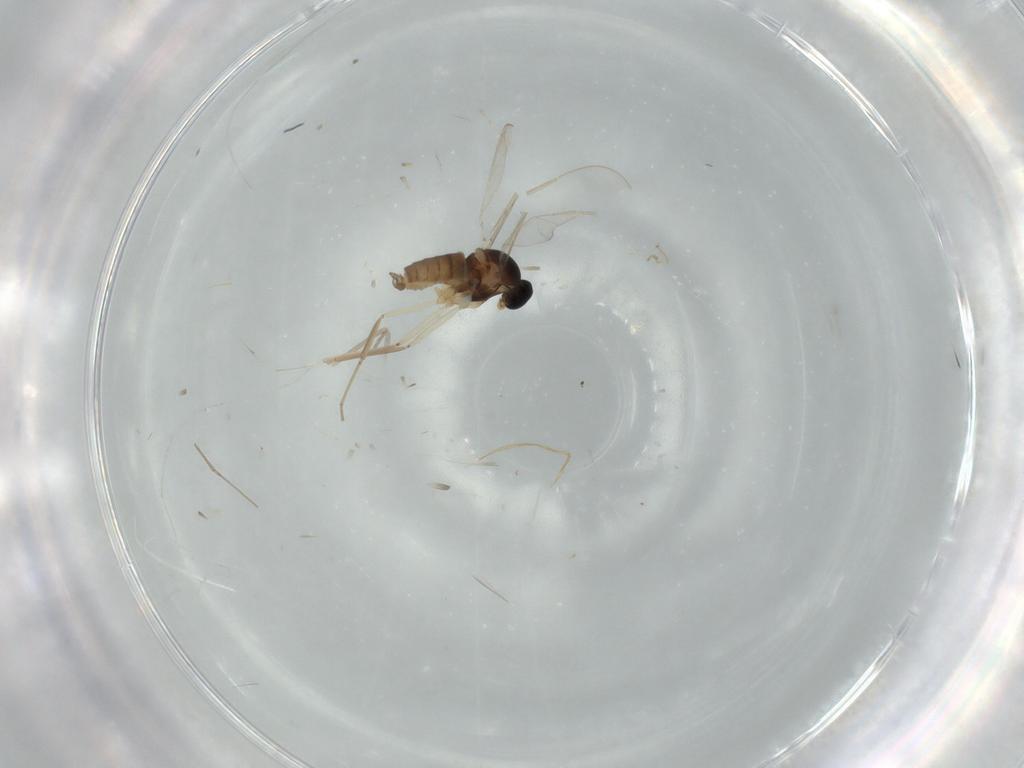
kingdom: Animalia
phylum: Arthropoda
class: Insecta
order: Diptera
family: Cecidomyiidae
